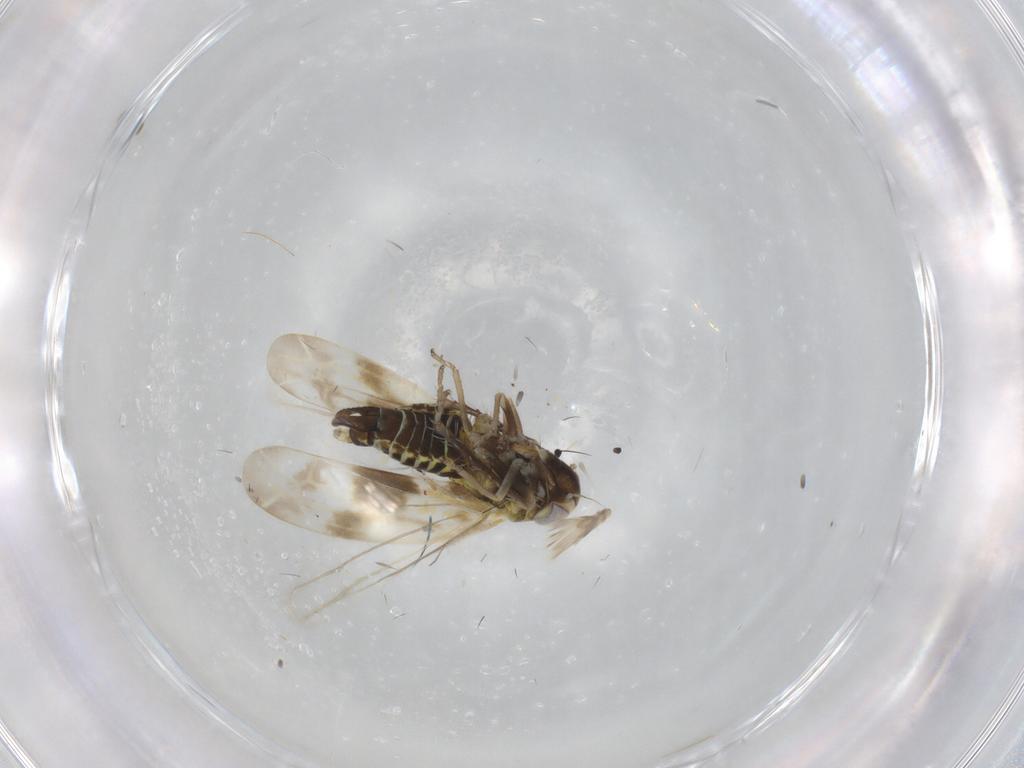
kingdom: Animalia
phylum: Arthropoda
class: Insecta
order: Hemiptera
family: Cicadellidae
